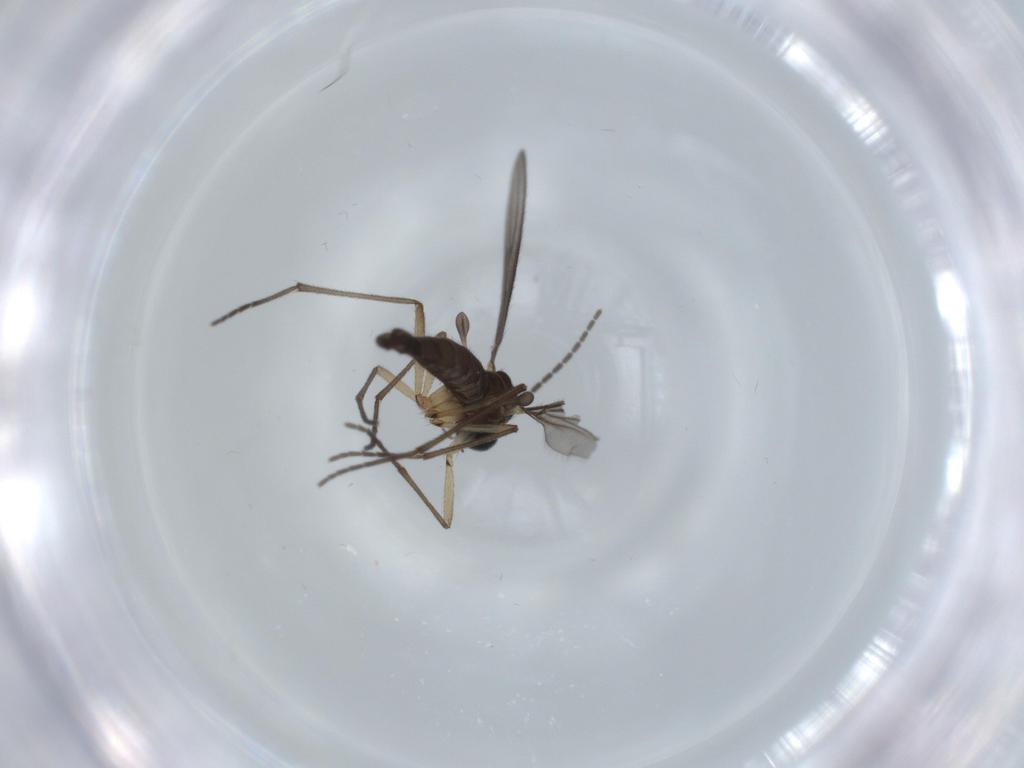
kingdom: Animalia
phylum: Arthropoda
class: Insecta
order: Diptera
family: Sciaridae
